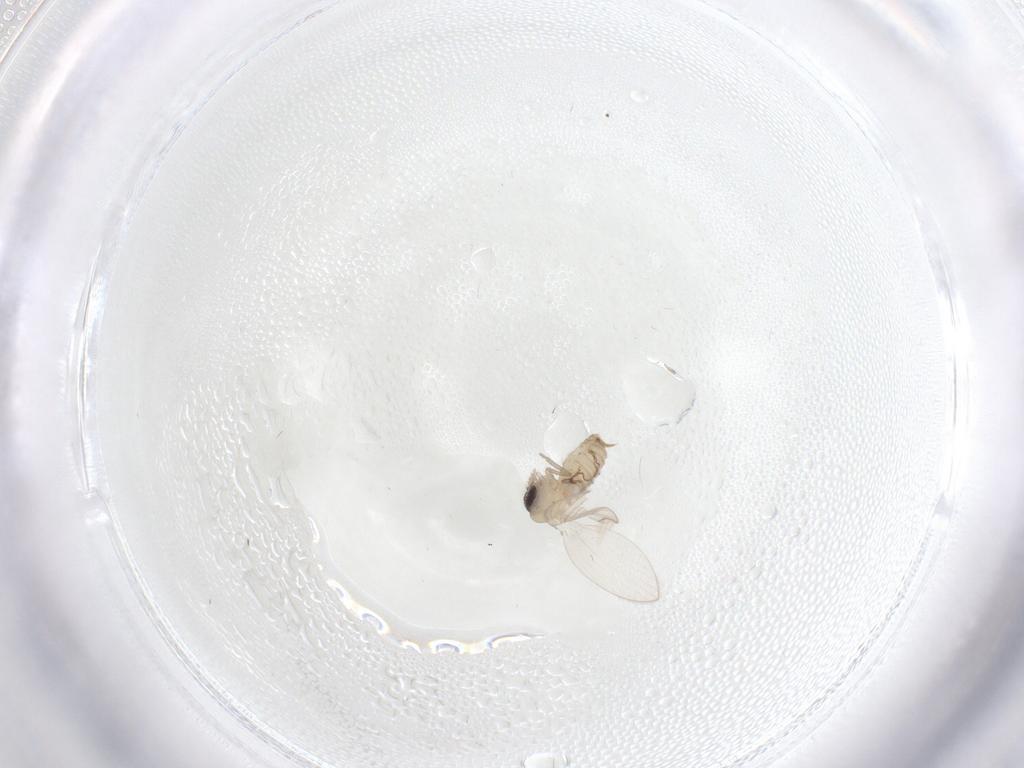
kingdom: Animalia
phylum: Arthropoda
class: Insecta
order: Diptera
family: Psychodidae
